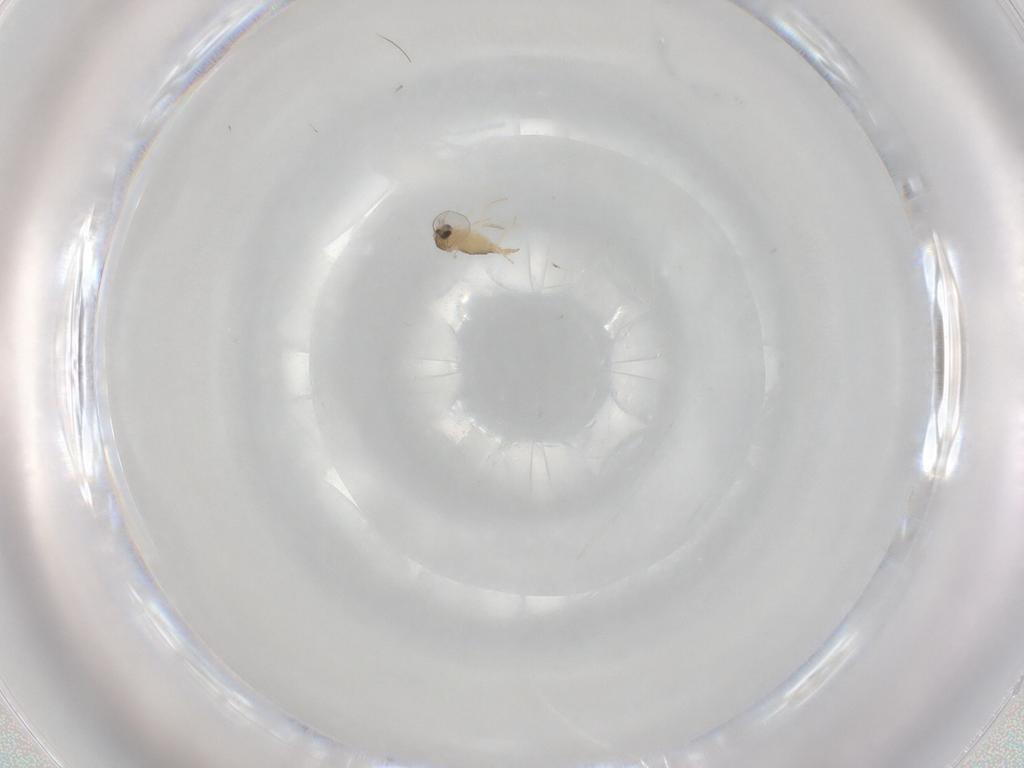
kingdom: Animalia
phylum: Arthropoda
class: Insecta
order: Diptera
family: Cecidomyiidae
